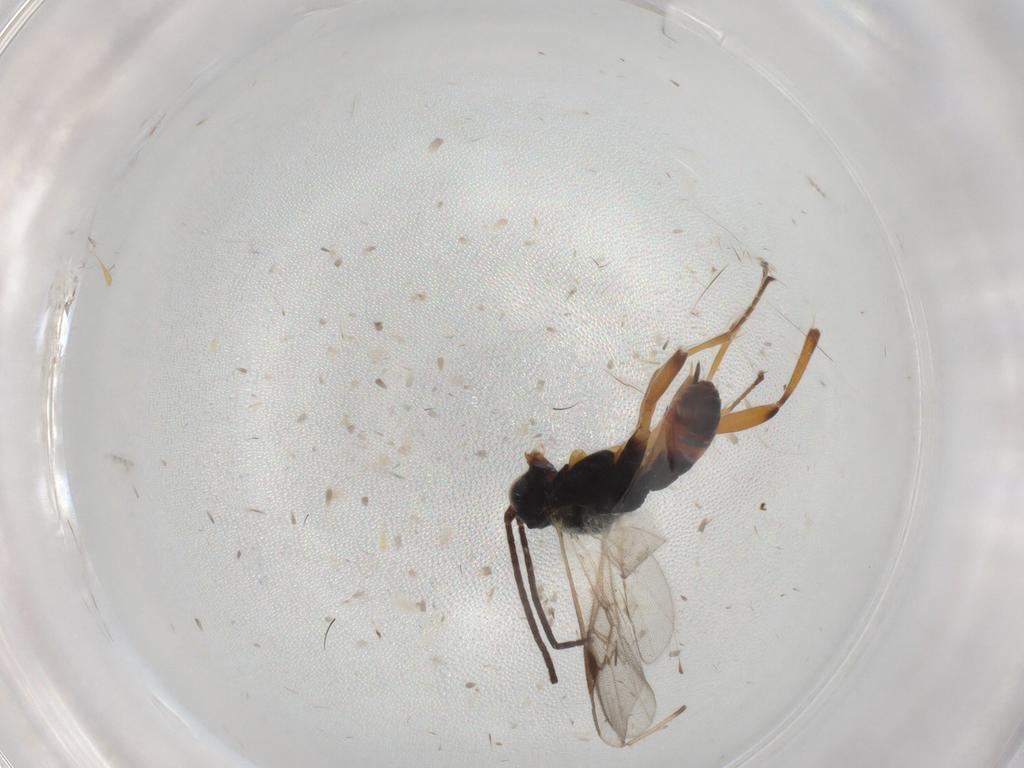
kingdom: Animalia
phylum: Arthropoda
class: Insecta
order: Hymenoptera
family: Braconidae
